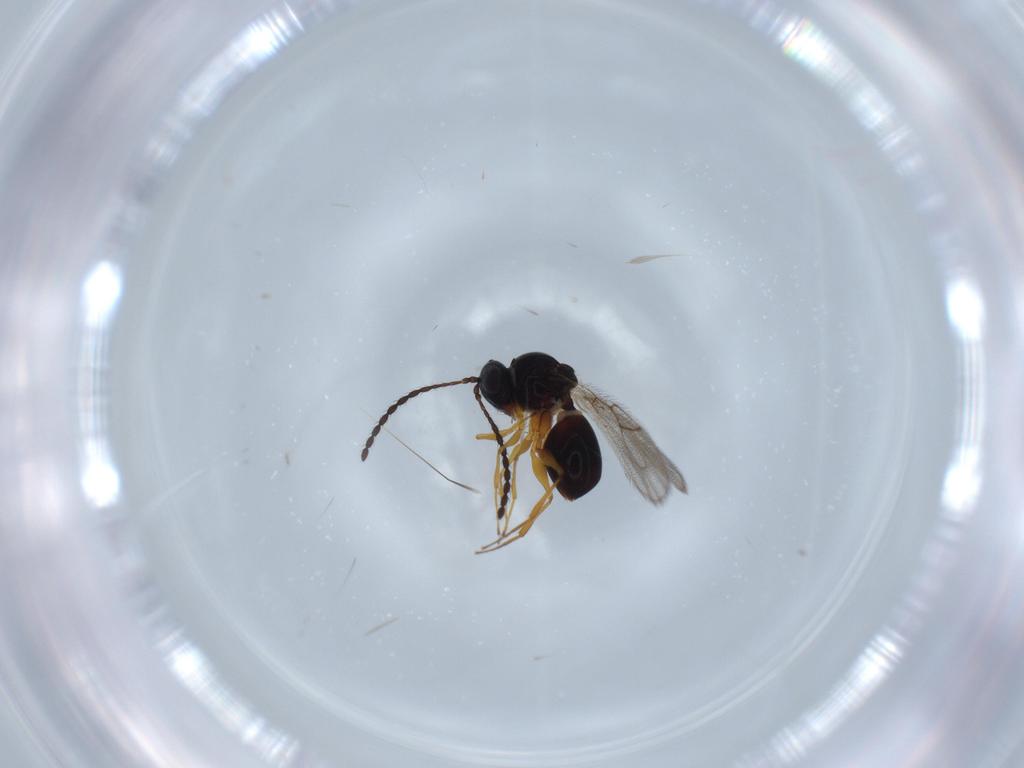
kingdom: Animalia
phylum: Arthropoda
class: Insecta
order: Hymenoptera
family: Figitidae
